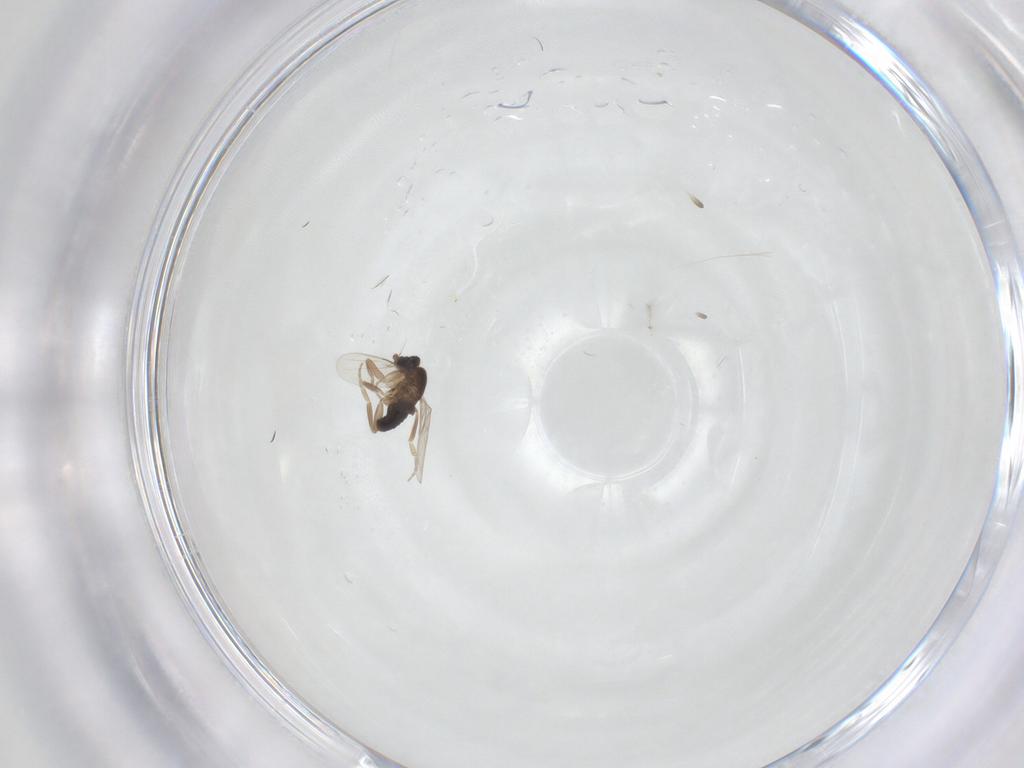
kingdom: Animalia
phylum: Arthropoda
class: Insecta
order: Diptera
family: Phoridae
